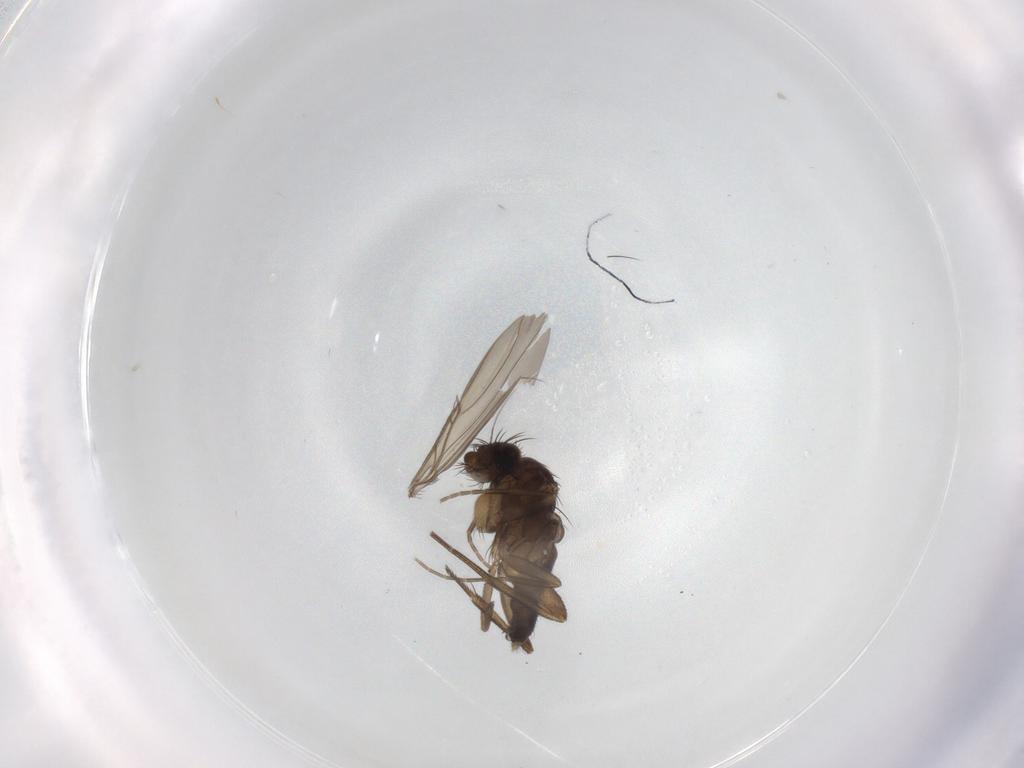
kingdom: Animalia
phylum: Arthropoda
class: Insecta
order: Diptera
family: Phoridae
